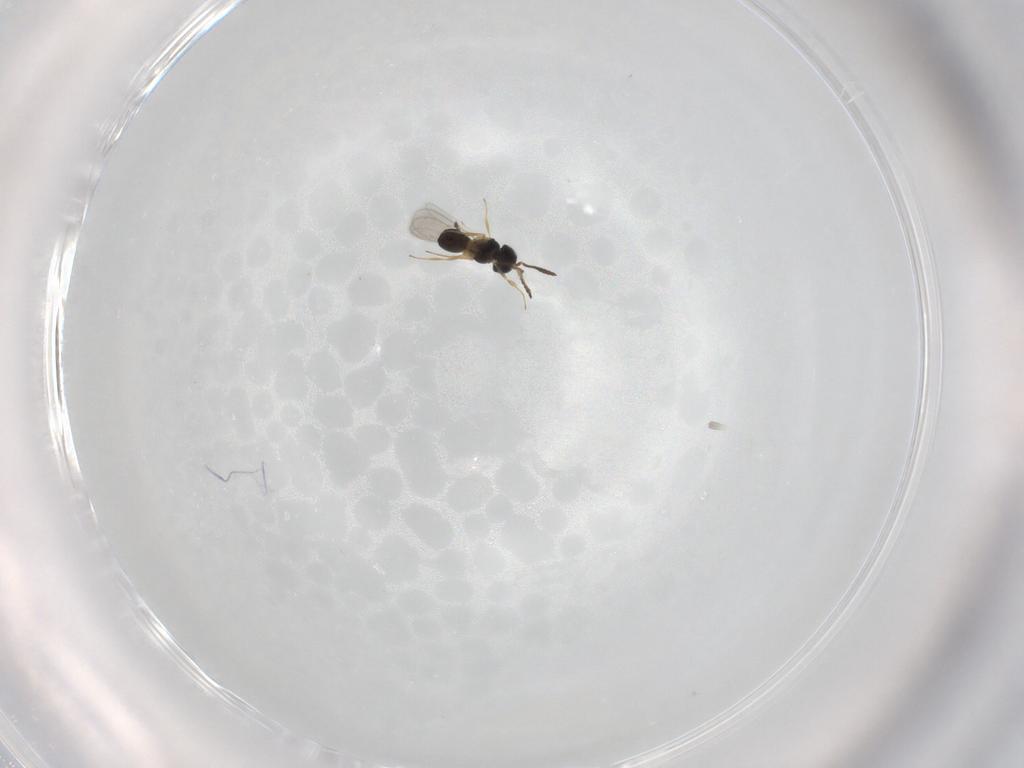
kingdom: Animalia
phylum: Arthropoda
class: Insecta
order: Hymenoptera
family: Scelionidae
